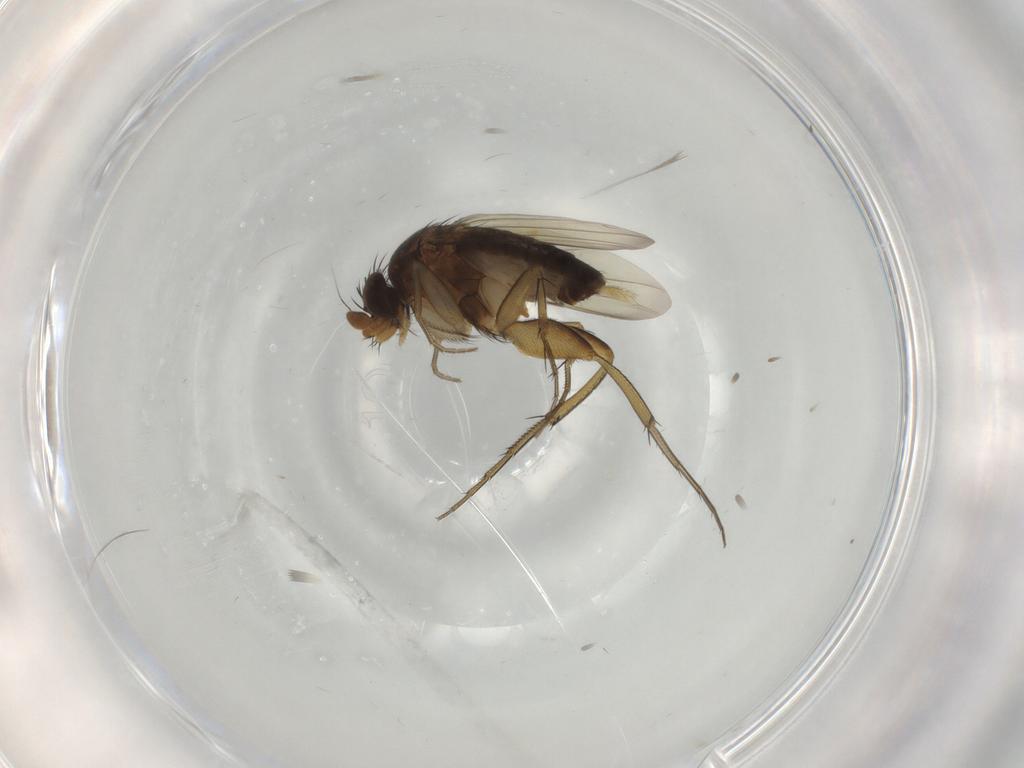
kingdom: Animalia
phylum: Arthropoda
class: Insecta
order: Diptera
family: Phoridae
